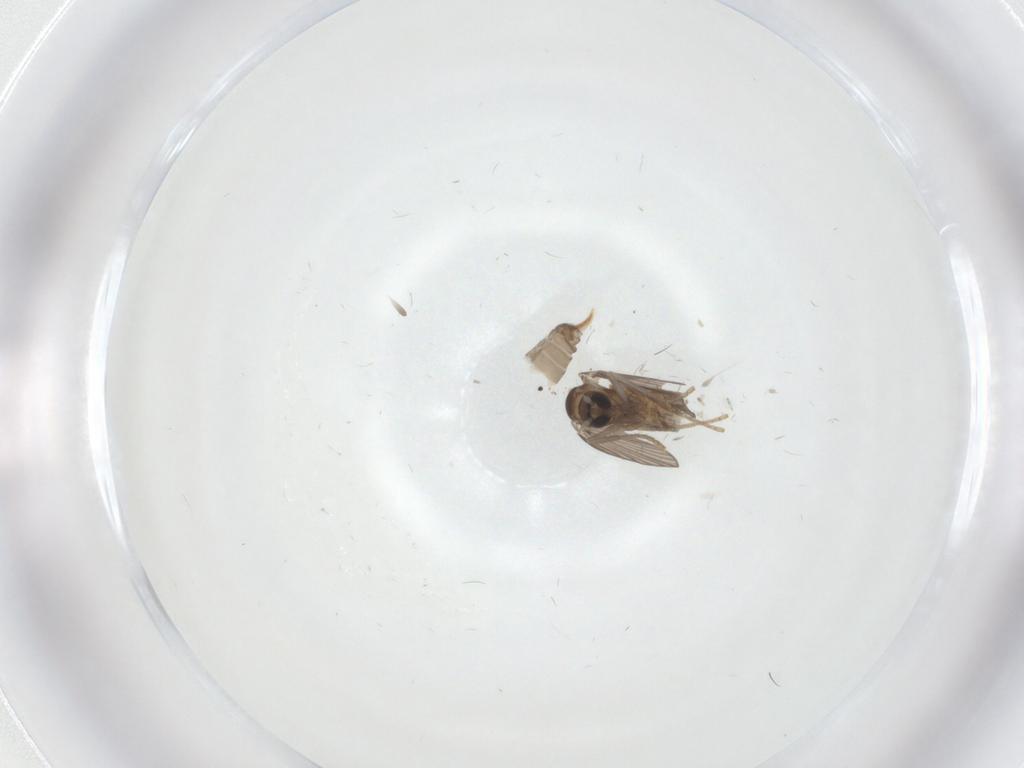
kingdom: Animalia
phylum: Arthropoda
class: Insecta
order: Diptera
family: Psychodidae
